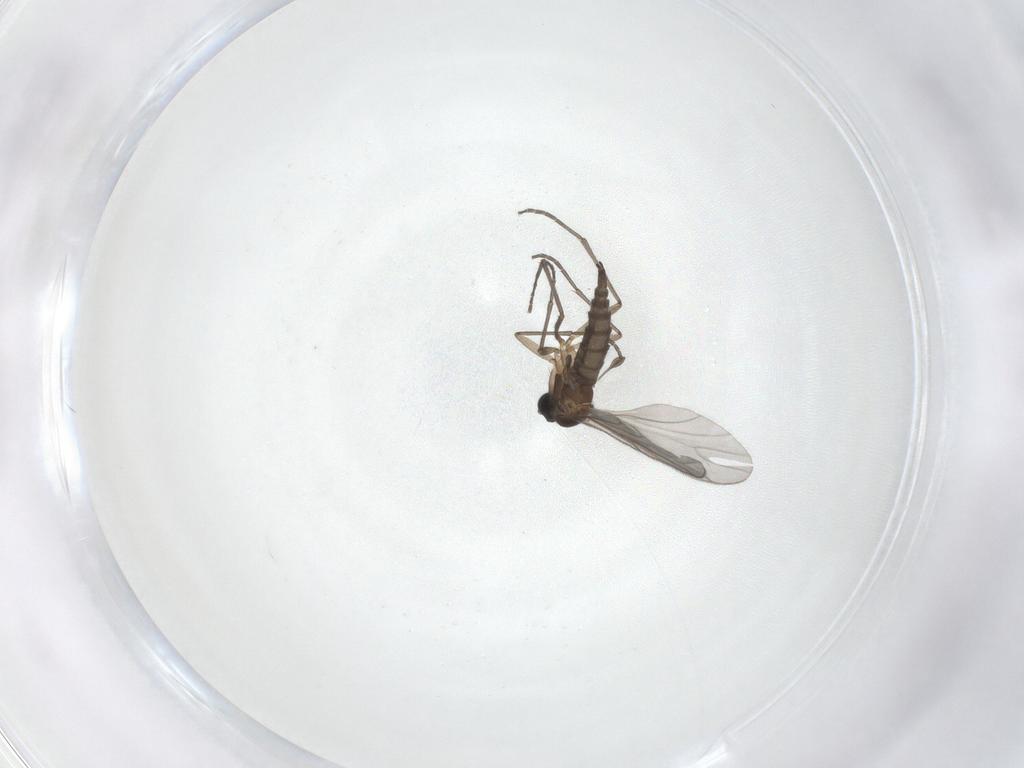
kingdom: Animalia
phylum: Arthropoda
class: Insecta
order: Diptera
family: Sciaridae
